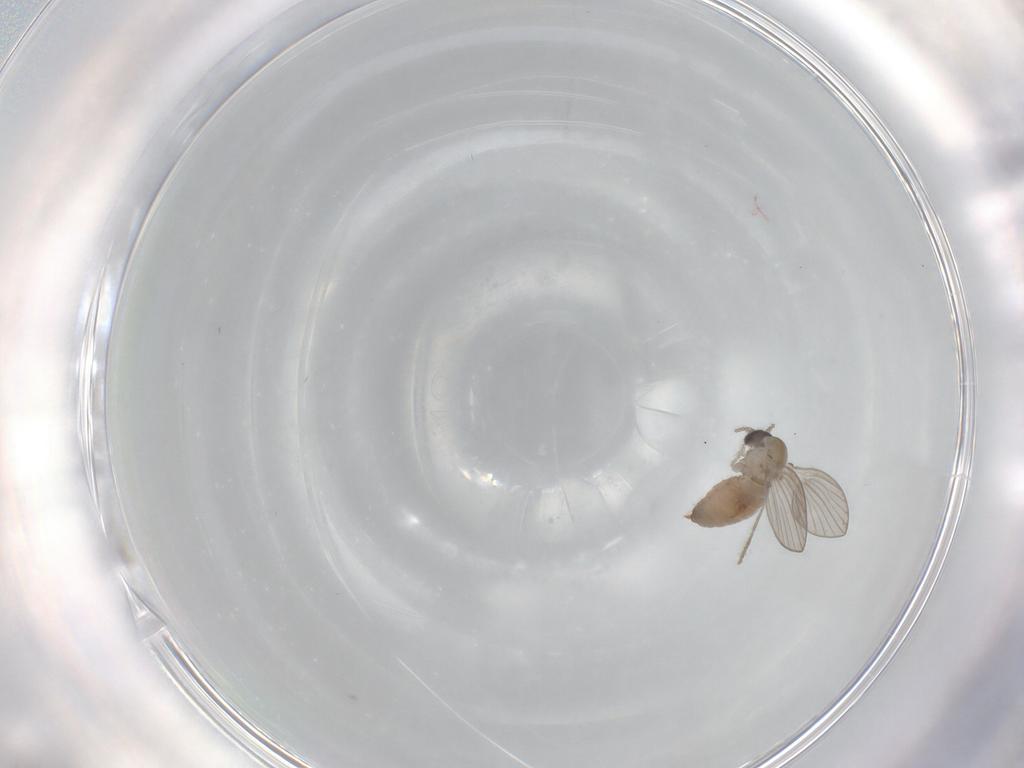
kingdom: Animalia
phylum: Arthropoda
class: Insecta
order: Diptera
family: Psychodidae
